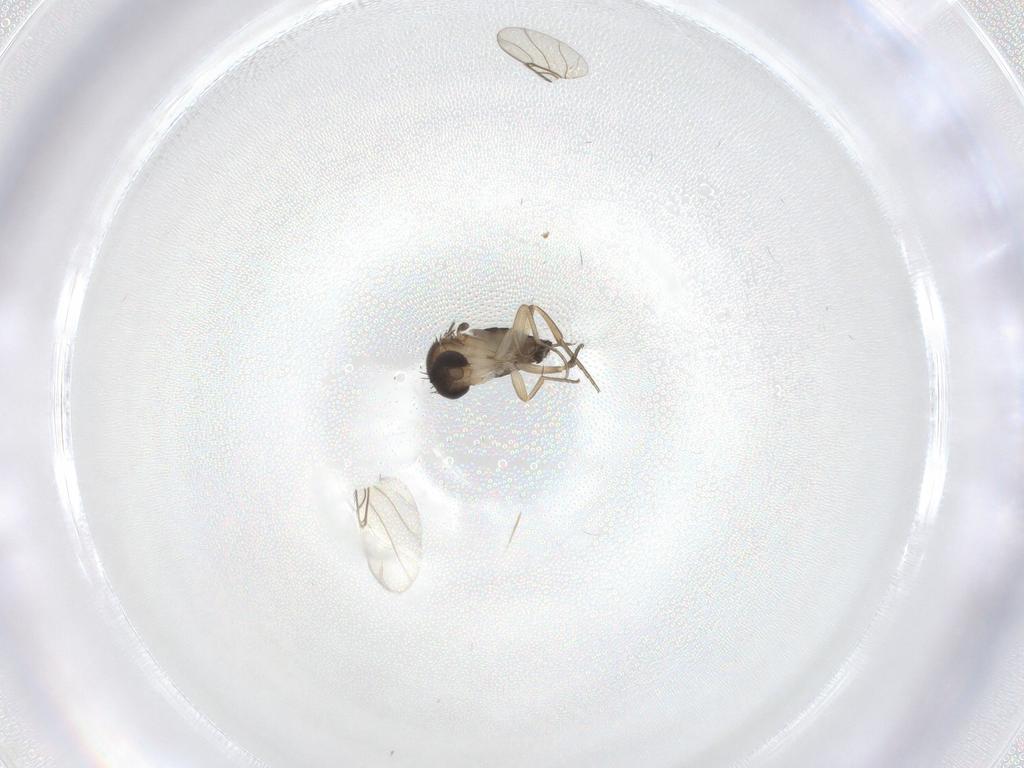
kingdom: Animalia
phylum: Arthropoda
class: Insecta
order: Diptera
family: Phoridae
